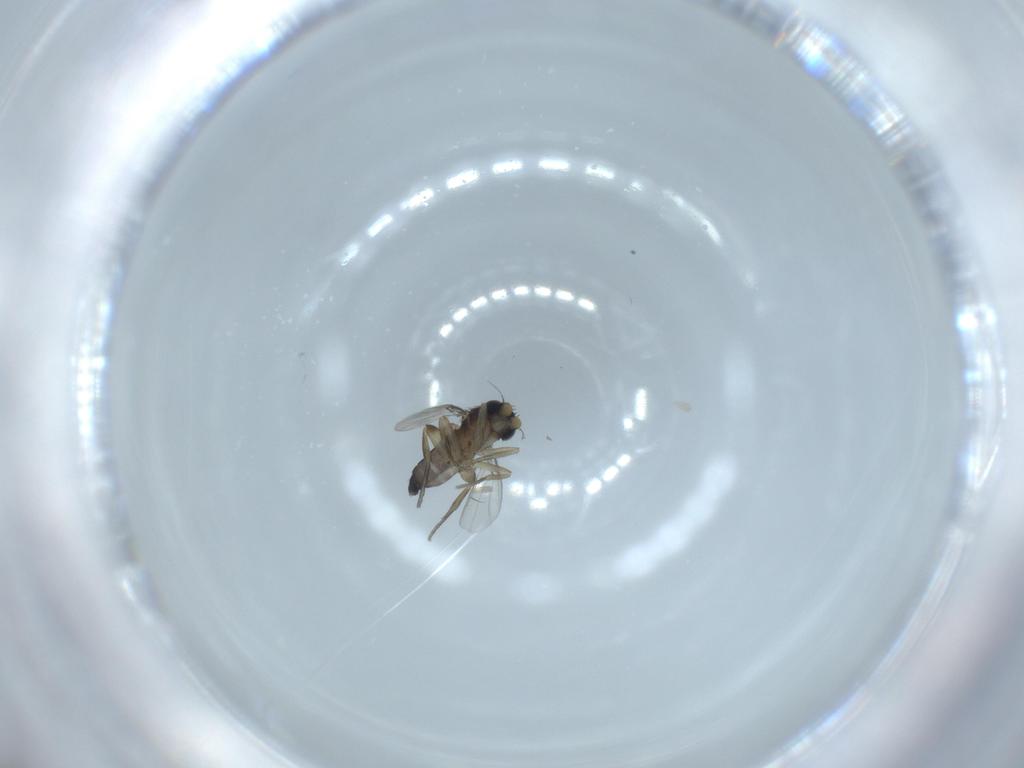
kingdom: Animalia
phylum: Arthropoda
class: Insecta
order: Diptera
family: Phoridae
